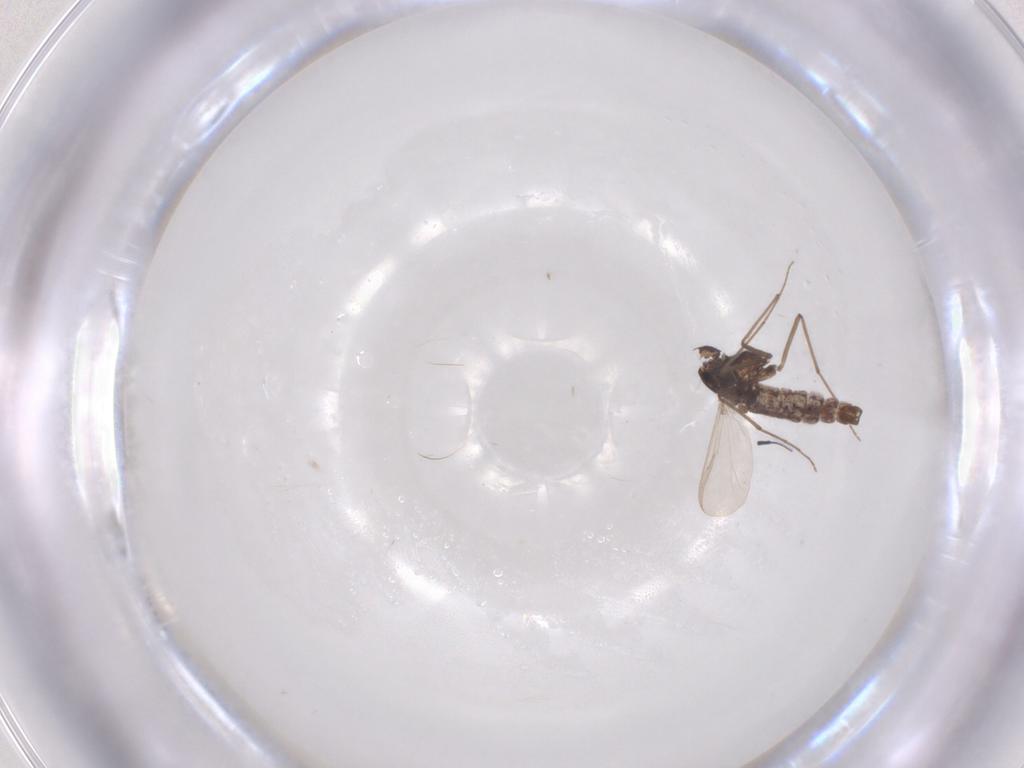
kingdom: Animalia
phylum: Arthropoda
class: Insecta
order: Diptera
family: Chironomidae
